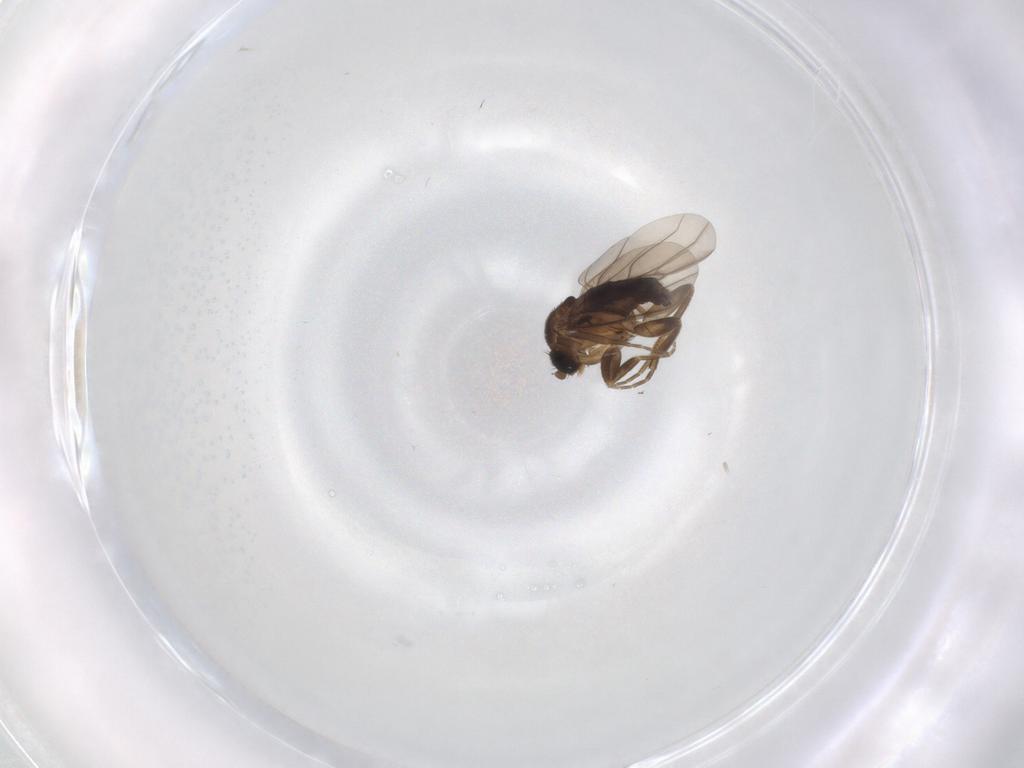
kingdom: Animalia
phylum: Arthropoda
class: Insecta
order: Diptera
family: Phoridae
